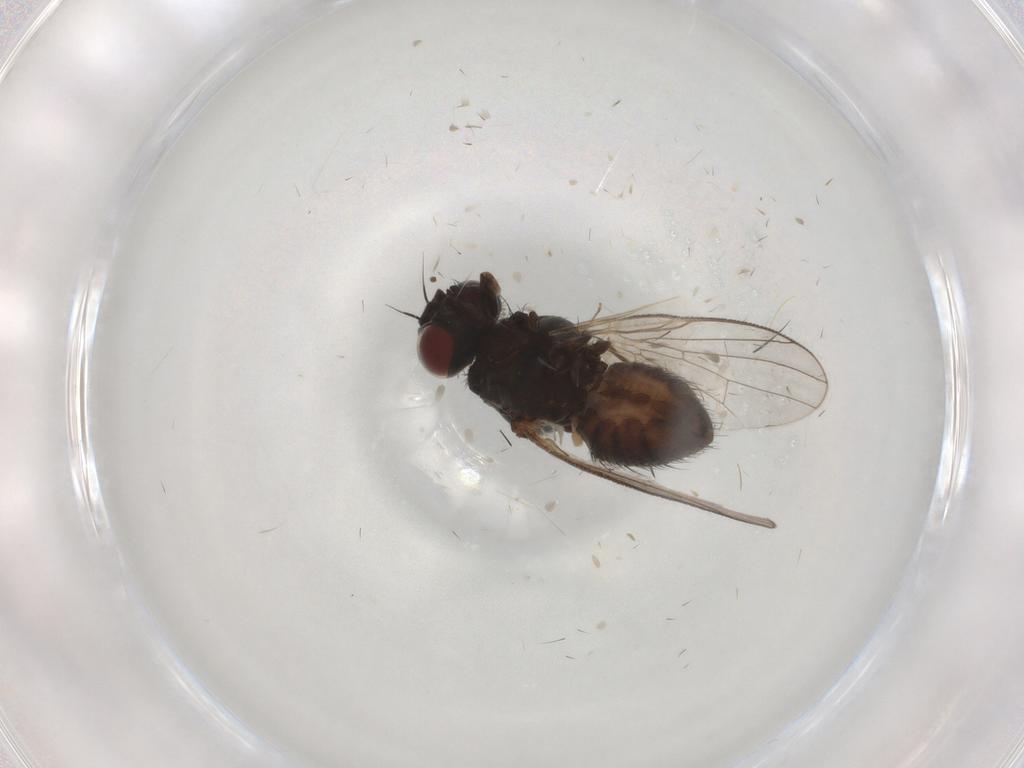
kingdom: Animalia
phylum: Arthropoda
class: Insecta
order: Diptera
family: Muscidae
